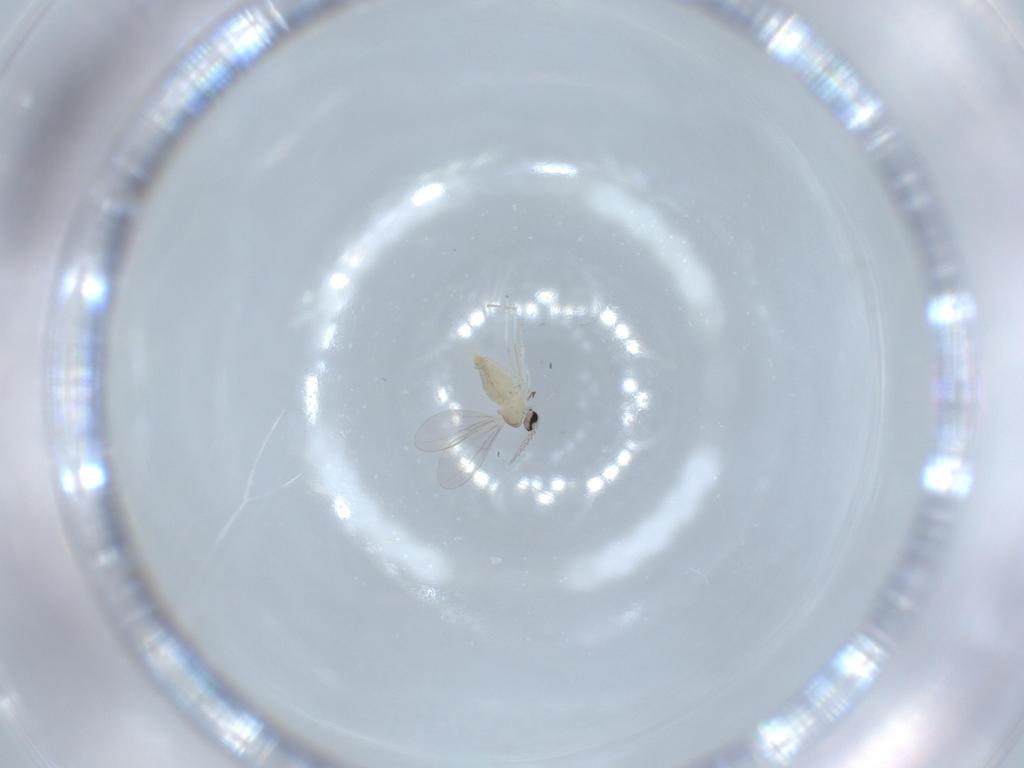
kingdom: Animalia
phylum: Arthropoda
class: Insecta
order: Diptera
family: Cecidomyiidae
